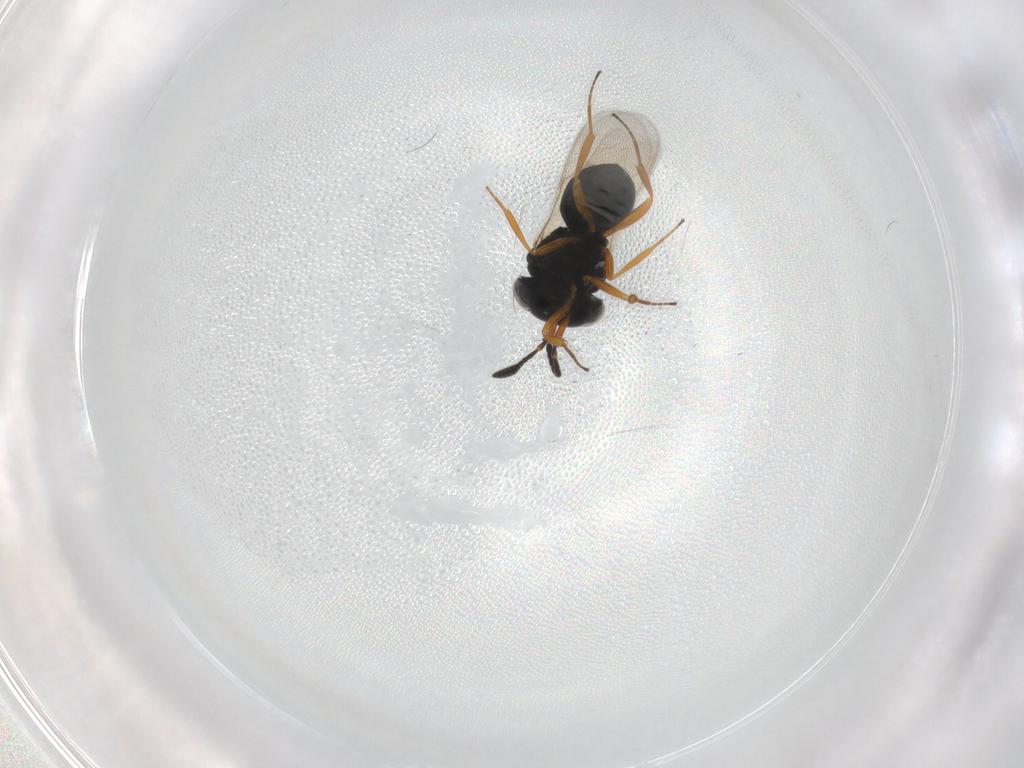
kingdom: Animalia
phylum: Arthropoda
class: Insecta
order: Hymenoptera
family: Scelionidae
